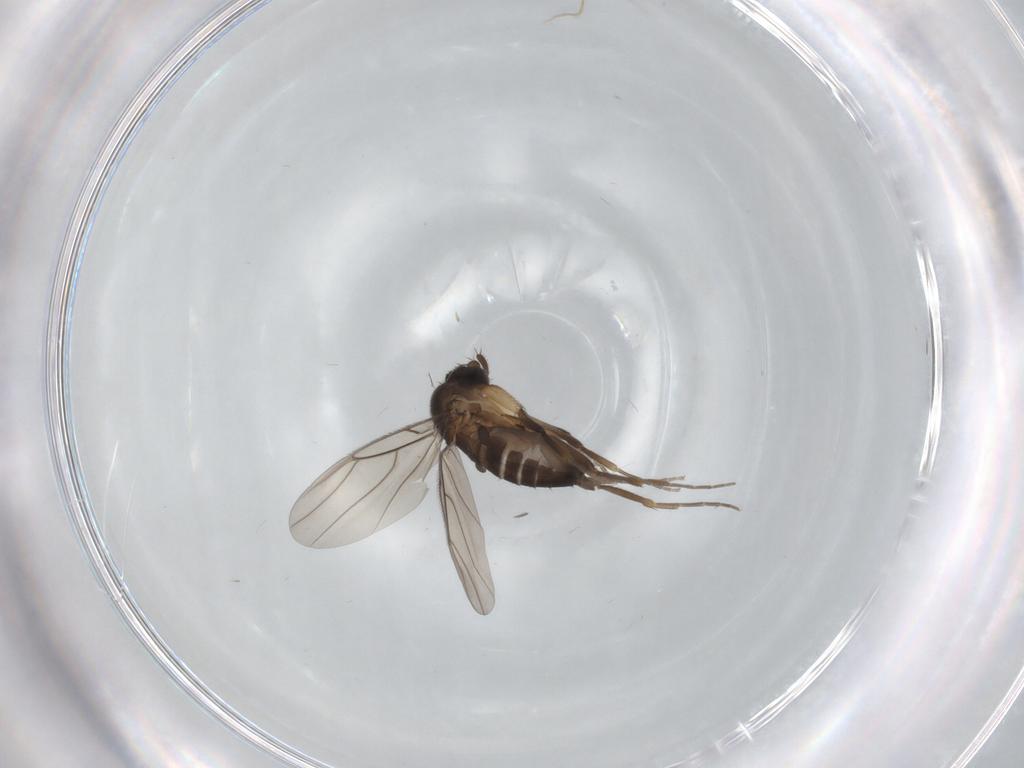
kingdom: Animalia
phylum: Arthropoda
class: Insecta
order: Diptera
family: Phoridae
